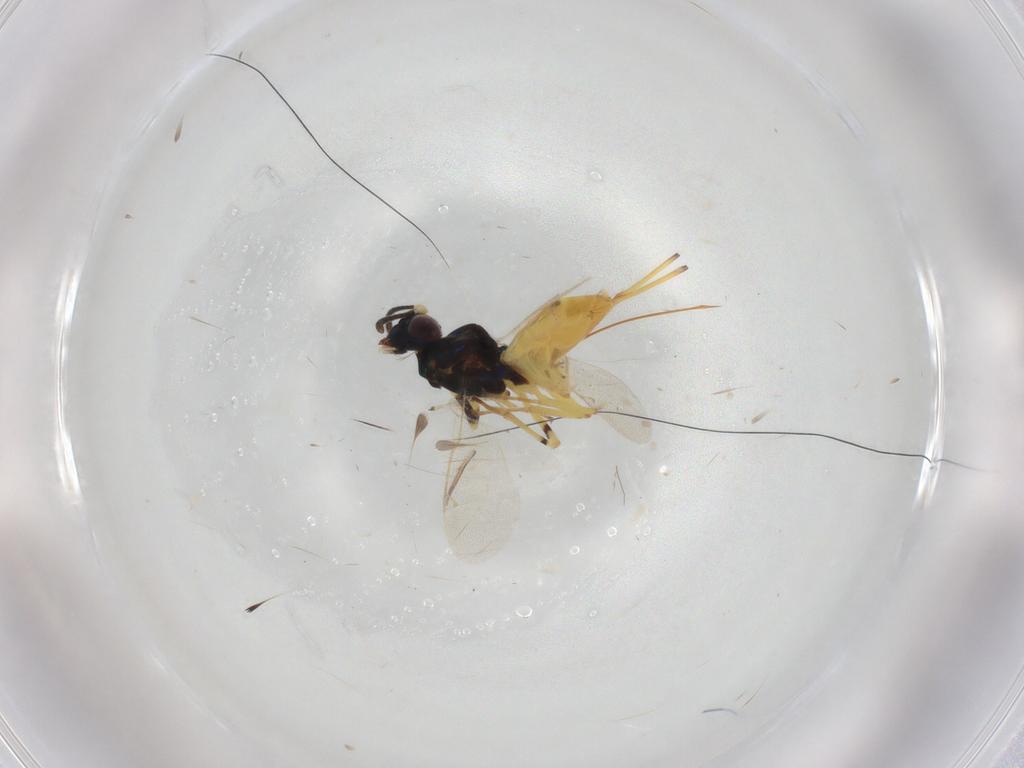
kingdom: Animalia
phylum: Arthropoda
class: Insecta
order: Hymenoptera
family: Eupelmidae
